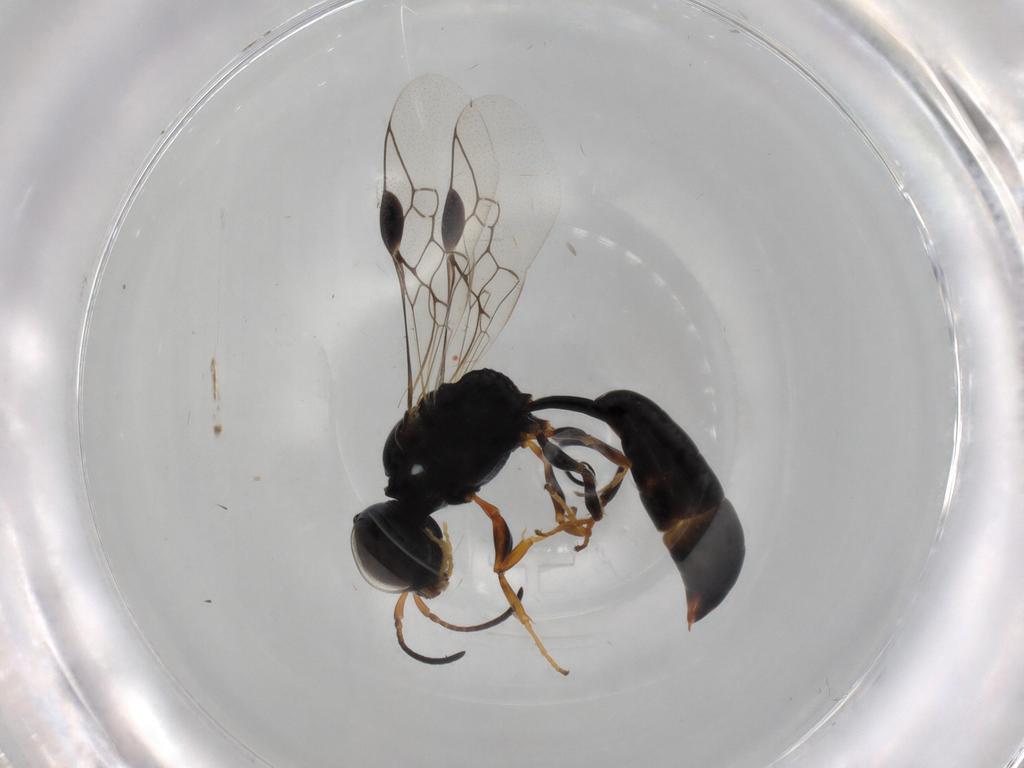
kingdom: Animalia
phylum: Arthropoda
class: Insecta
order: Hymenoptera
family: Pemphredonidae
